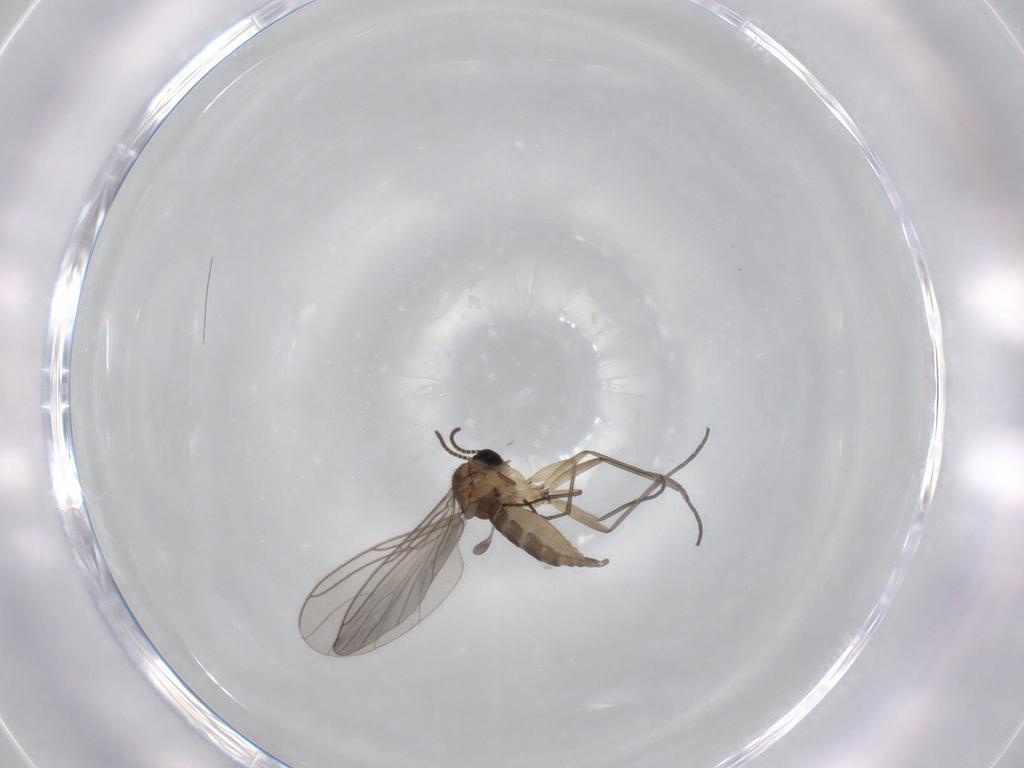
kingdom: Animalia
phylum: Arthropoda
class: Insecta
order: Diptera
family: Sciaridae
